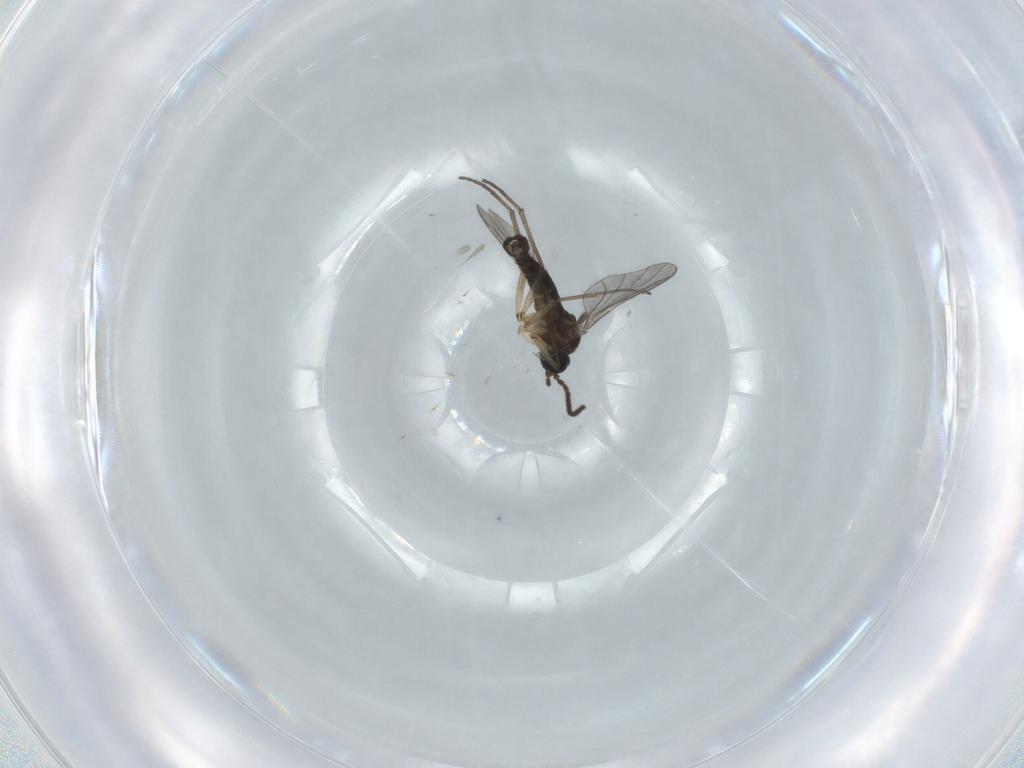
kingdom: Animalia
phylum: Arthropoda
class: Insecta
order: Diptera
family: Sciaridae
